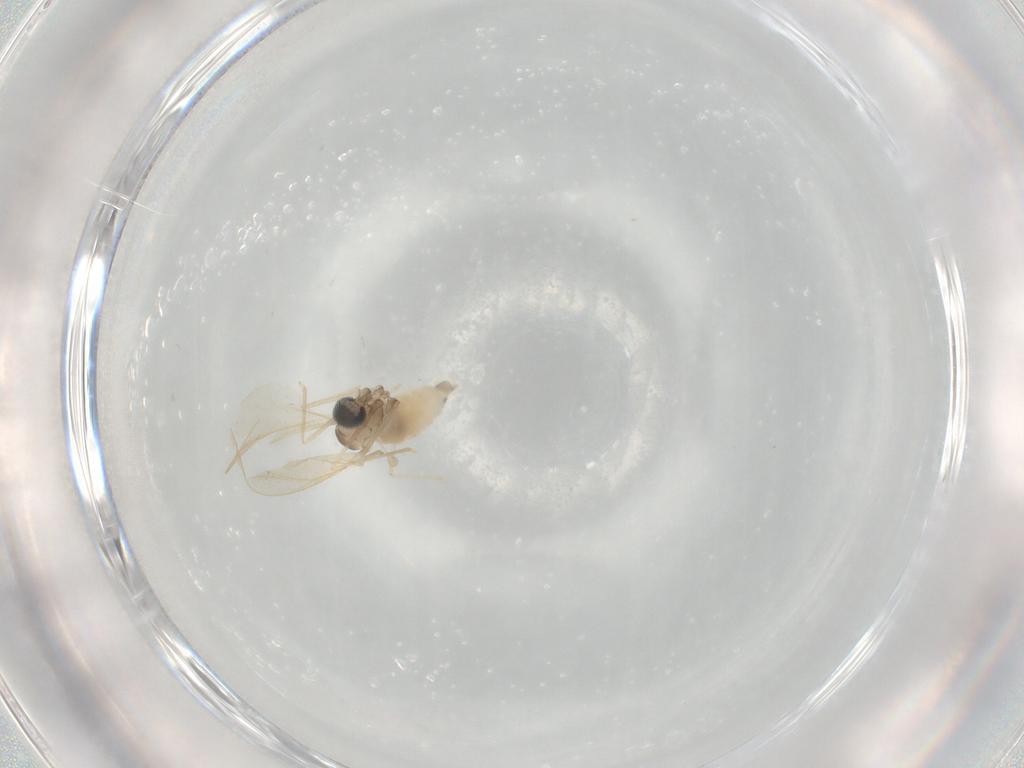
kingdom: Animalia
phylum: Arthropoda
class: Insecta
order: Diptera
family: Cecidomyiidae
